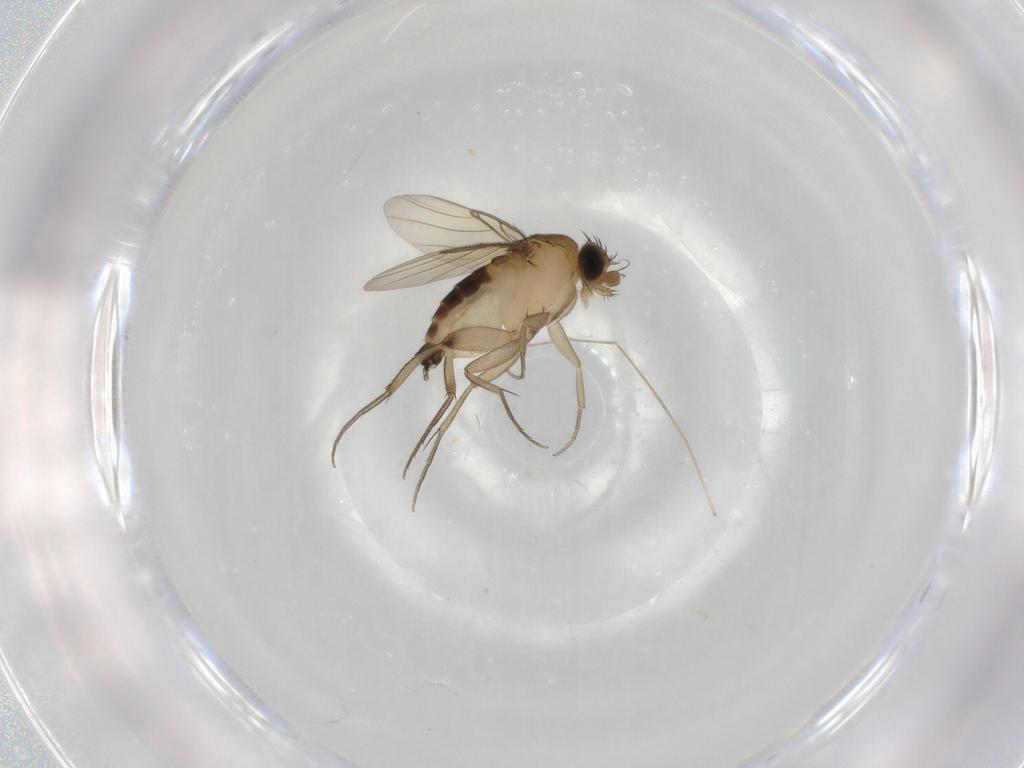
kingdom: Animalia
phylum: Arthropoda
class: Insecta
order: Diptera
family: Phoridae
